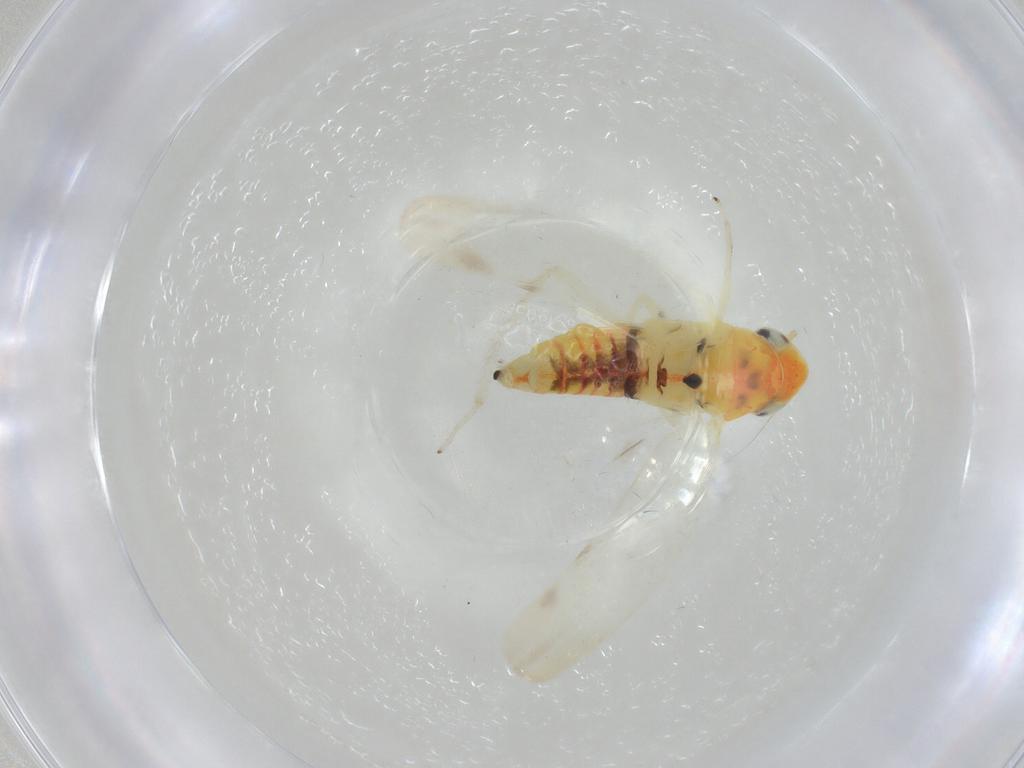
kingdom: Animalia
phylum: Arthropoda
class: Insecta
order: Hemiptera
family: Cicadellidae
